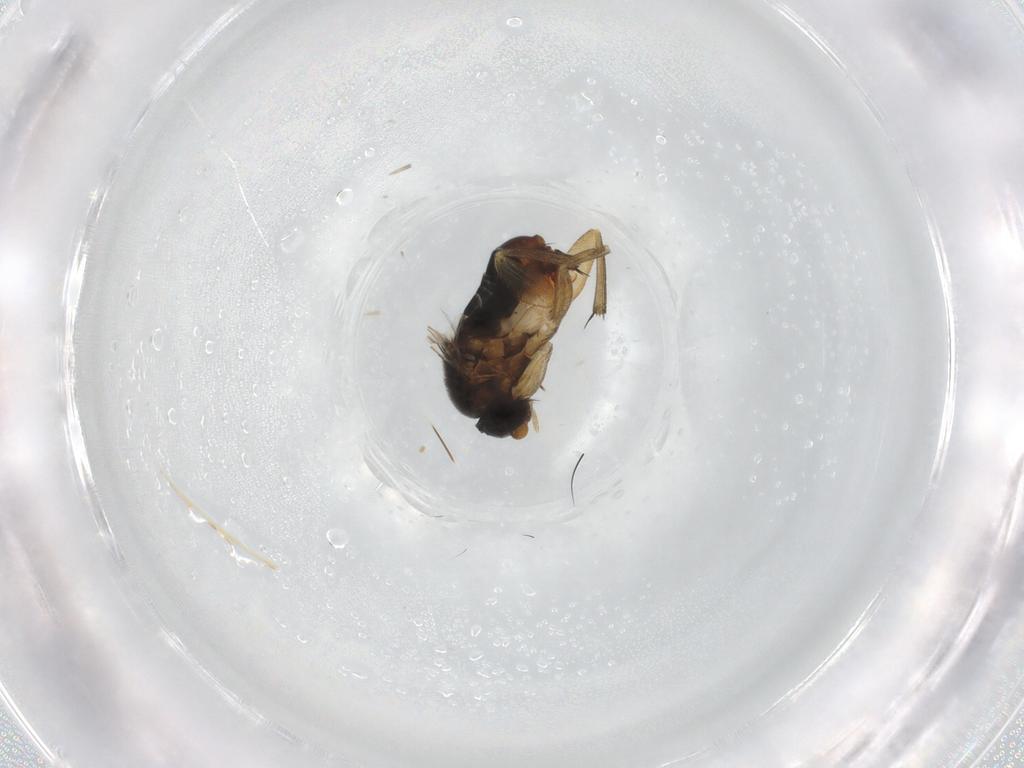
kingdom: Animalia
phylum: Arthropoda
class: Insecta
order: Diptera
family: Phoridae
